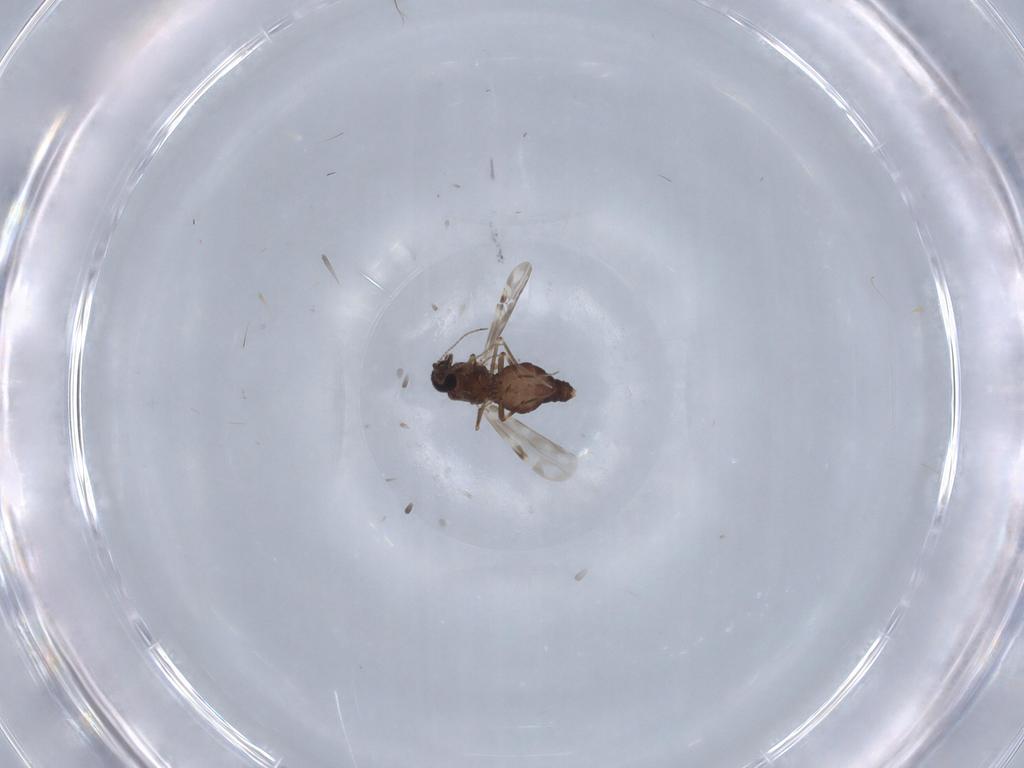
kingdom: Animalia
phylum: Arthropoda
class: Insecta
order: Diptera
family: Ceratopogonidae
